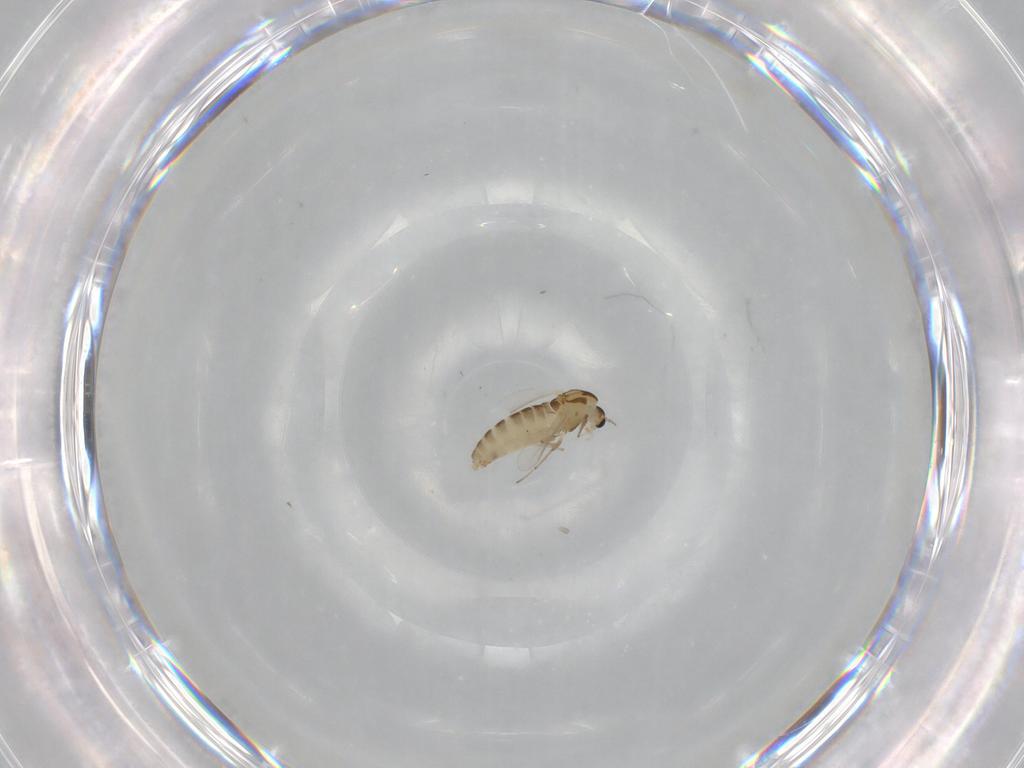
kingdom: Animalia
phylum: Arthropoda
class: Insecta
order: Diptera
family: Chironomidae
